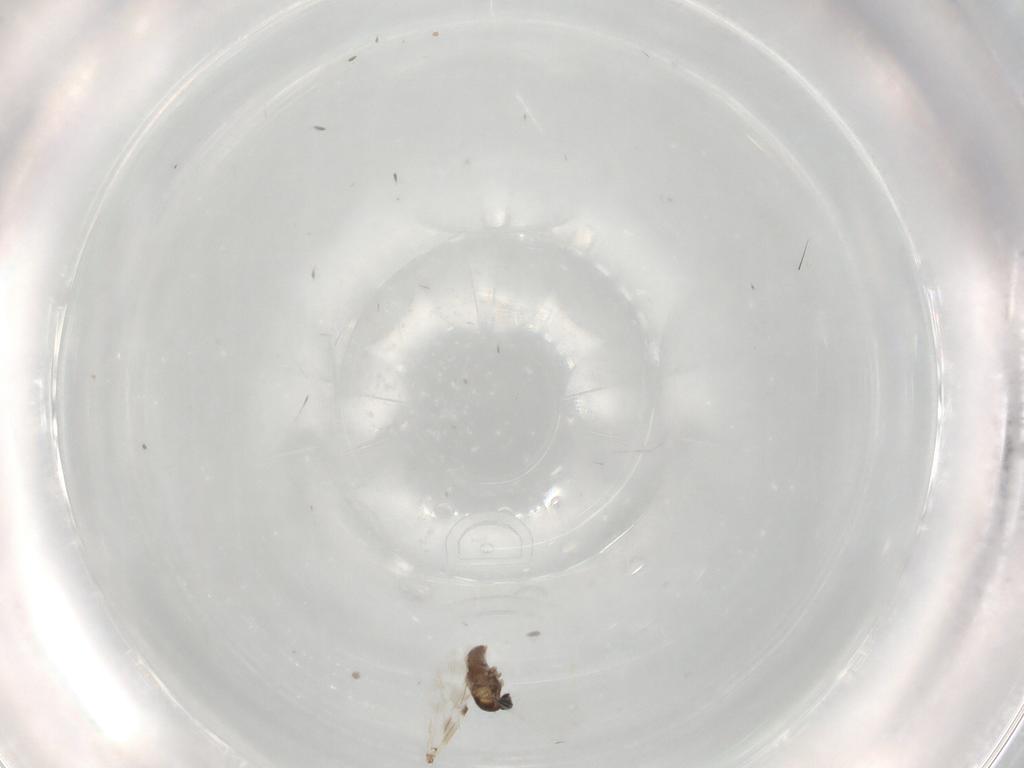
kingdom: Animalia
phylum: Arthropoda
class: Insecta
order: Diptera
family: Cecidomyiidae
